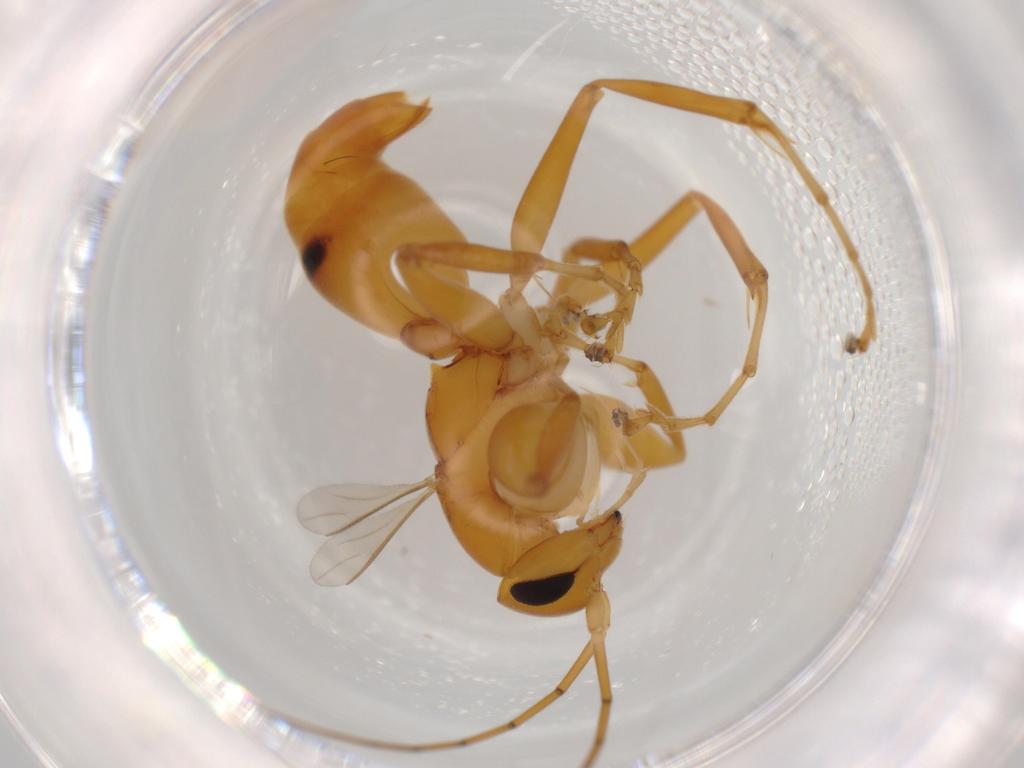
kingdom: Animalia
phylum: Arthropoda
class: Insecta
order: Hymenoptera
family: Rhopalosomatidae
